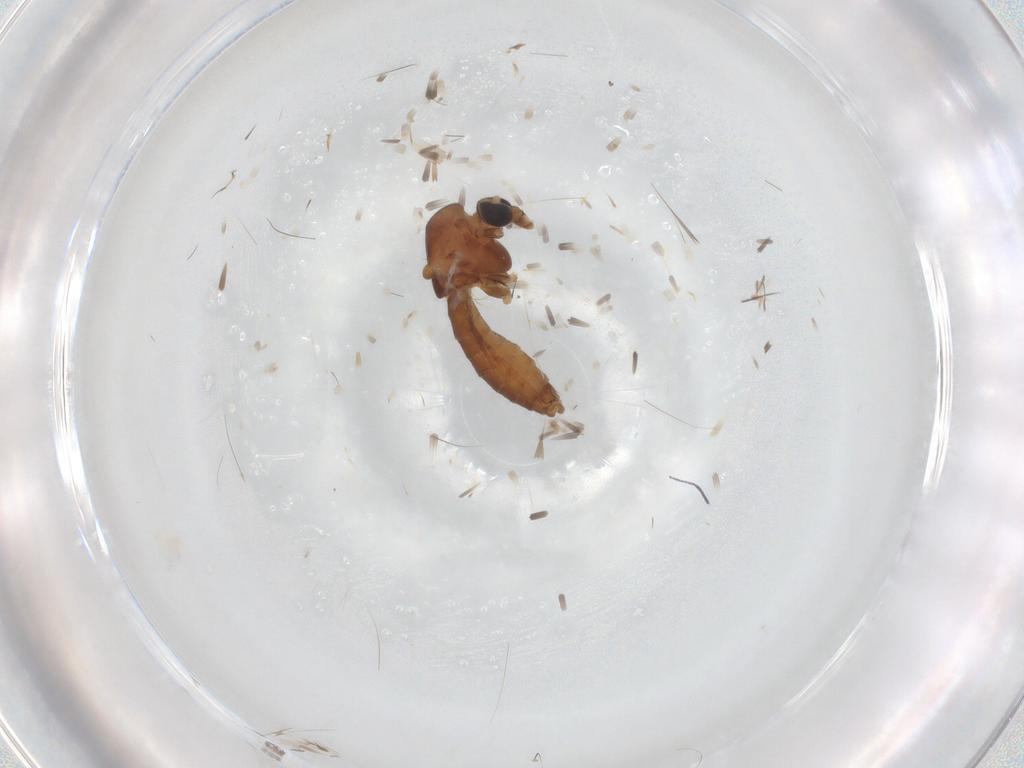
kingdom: Animalia
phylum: Arthropoda
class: Insecta
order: Diptera
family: Chironomidae
